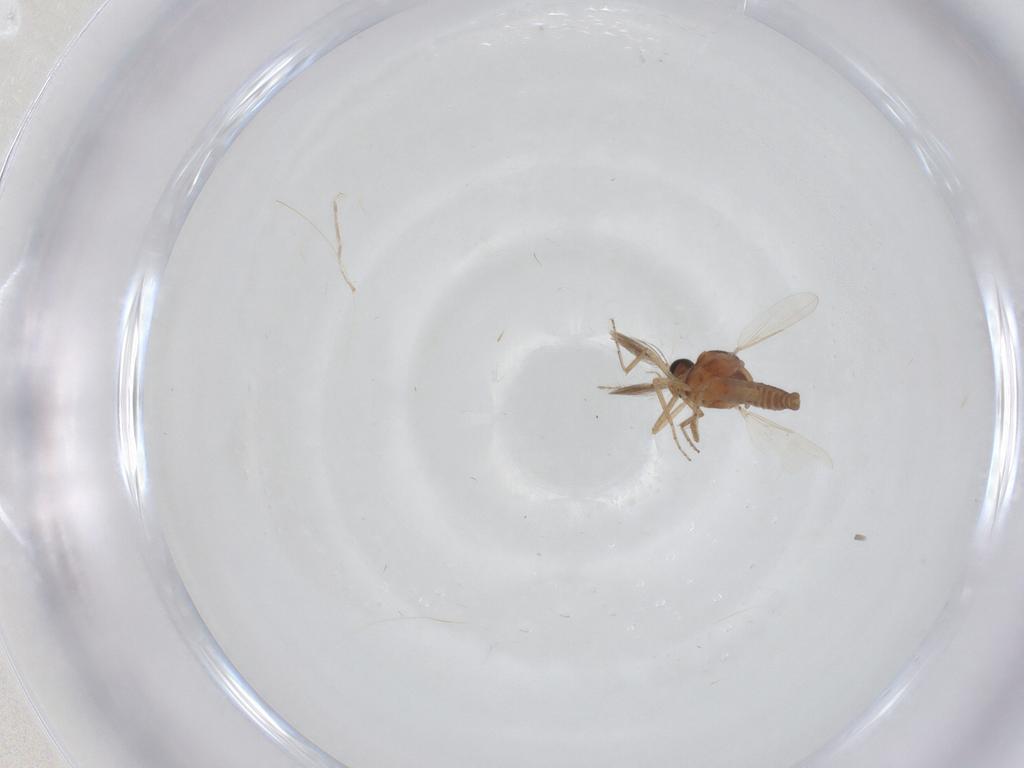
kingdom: Animalia
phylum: Arthropoda
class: Insecta
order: Diptera
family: Ceratopogonidae
